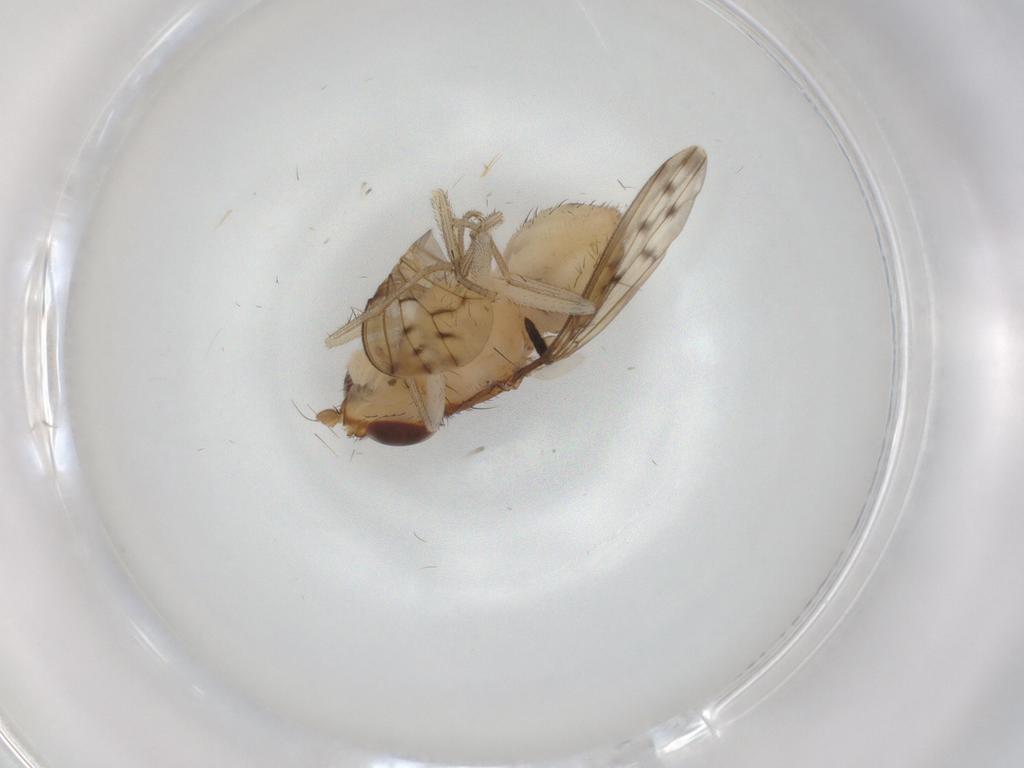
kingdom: Animalia
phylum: Arthropoda
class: Insecta
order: Diptera
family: Lauxaniidae
